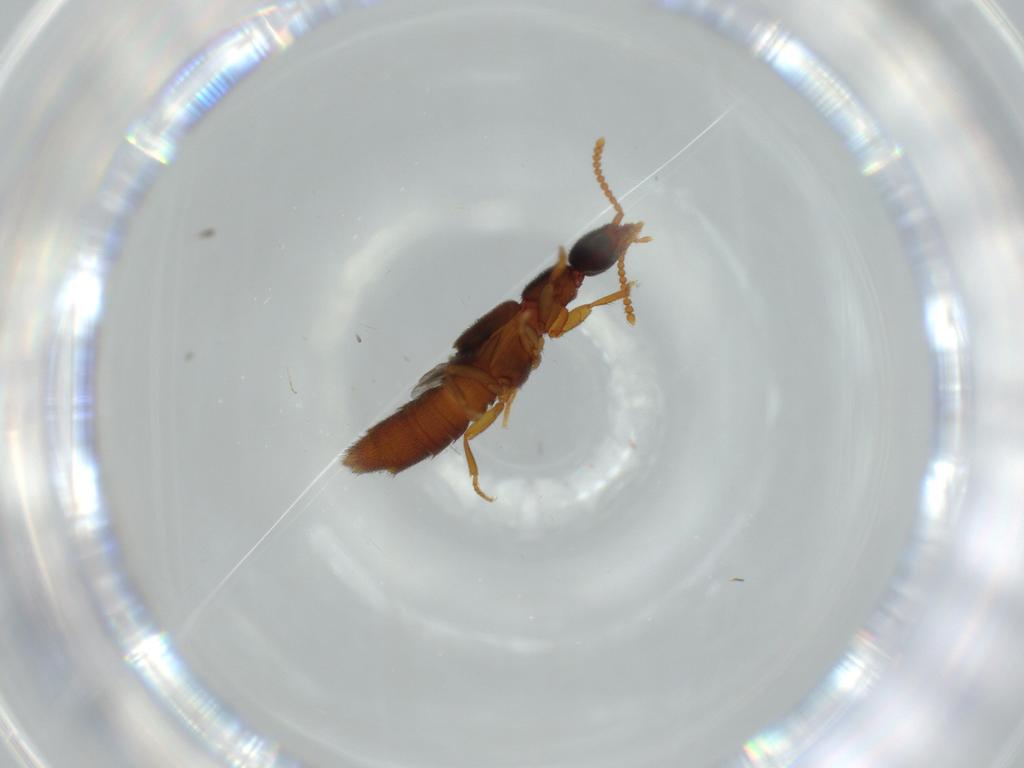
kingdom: Animalia
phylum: Arthropoda
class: Insecta
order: Coleoptera
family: Staphylinidae
